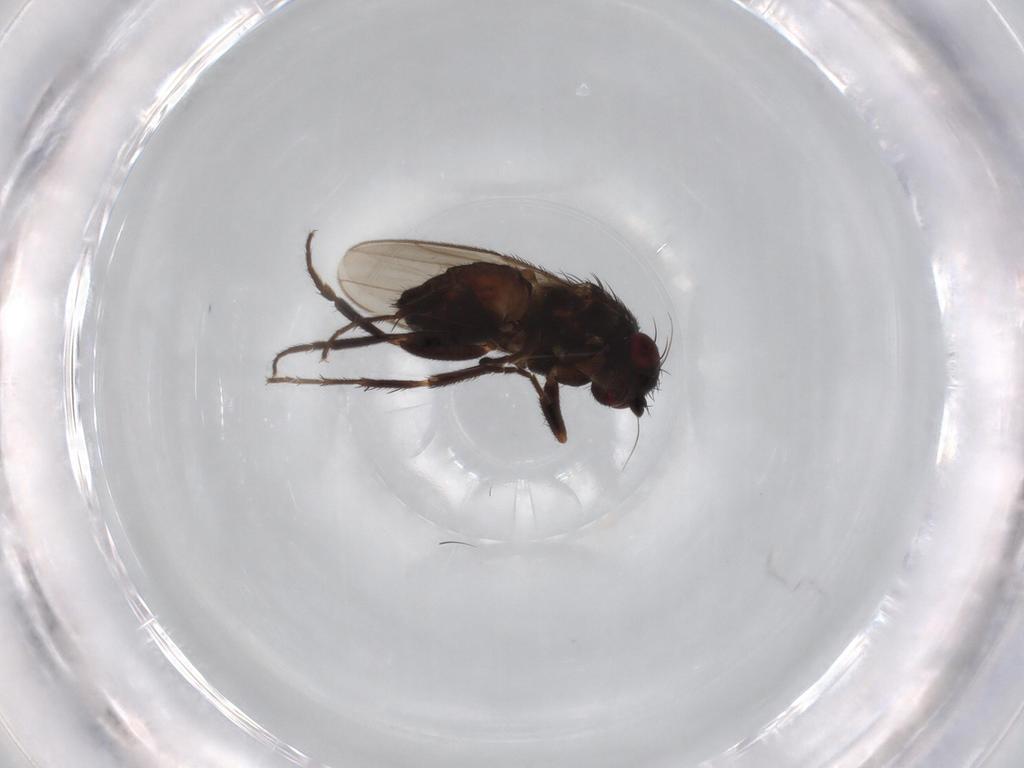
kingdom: Animalia
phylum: Arthropoda
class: Insecta
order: Diptera
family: Sphaeroceridae
